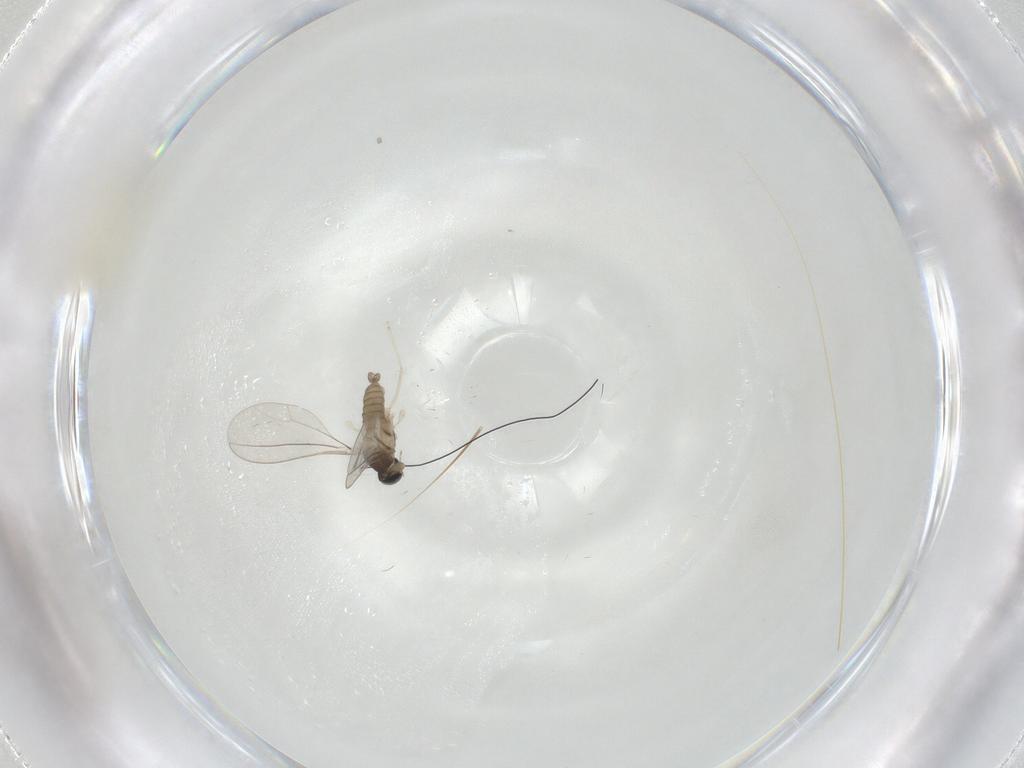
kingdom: Animalia
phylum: Arthropoda
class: Insecta
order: Diptera
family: Cecidomyiidae
